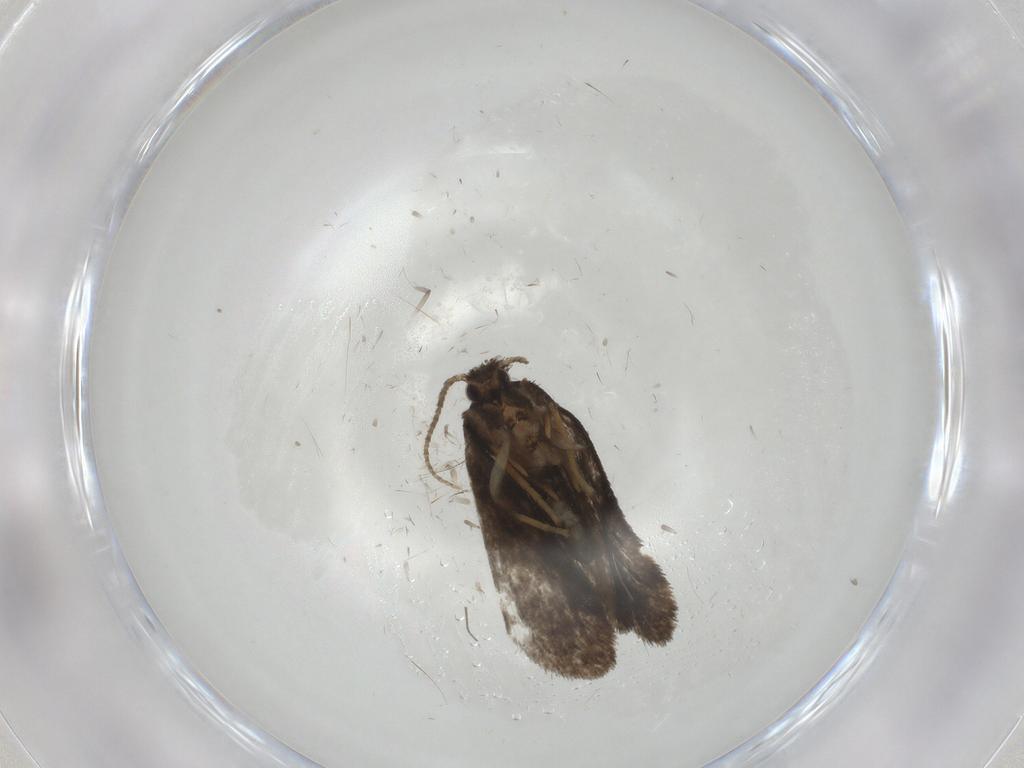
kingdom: Animalia
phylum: Arthropoda
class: Insecta
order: Lepidoptera
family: Psychidae
